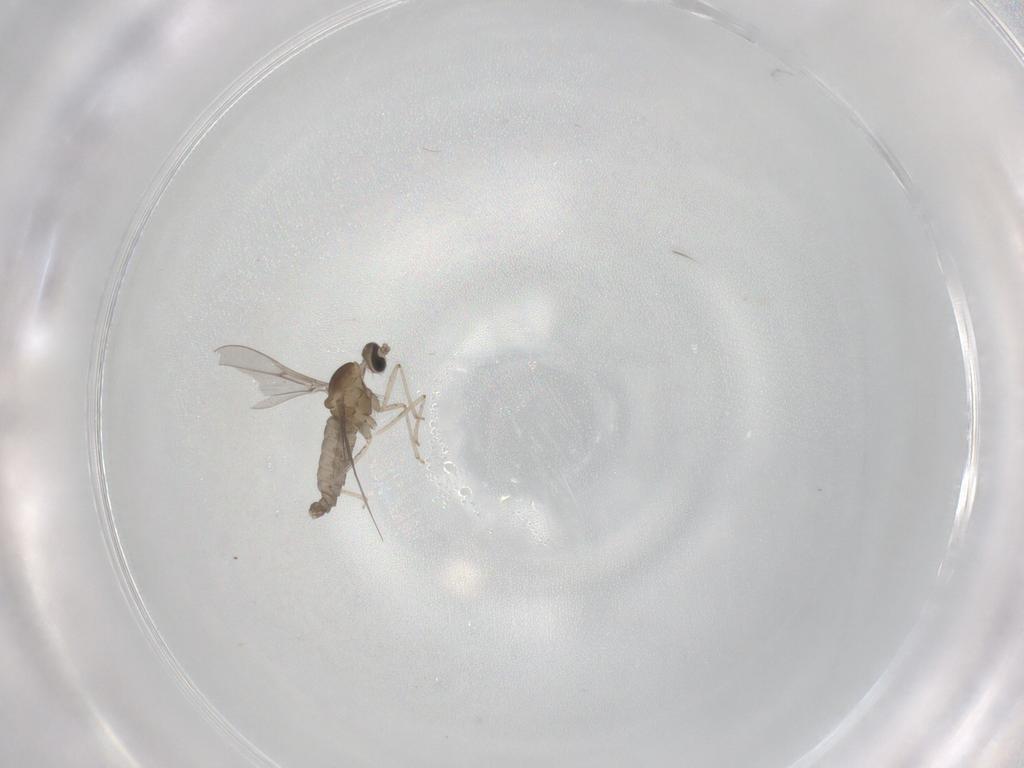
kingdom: Animalia
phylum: Arthropoda
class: Insecta
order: Diptera
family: Cecidomyiidae
